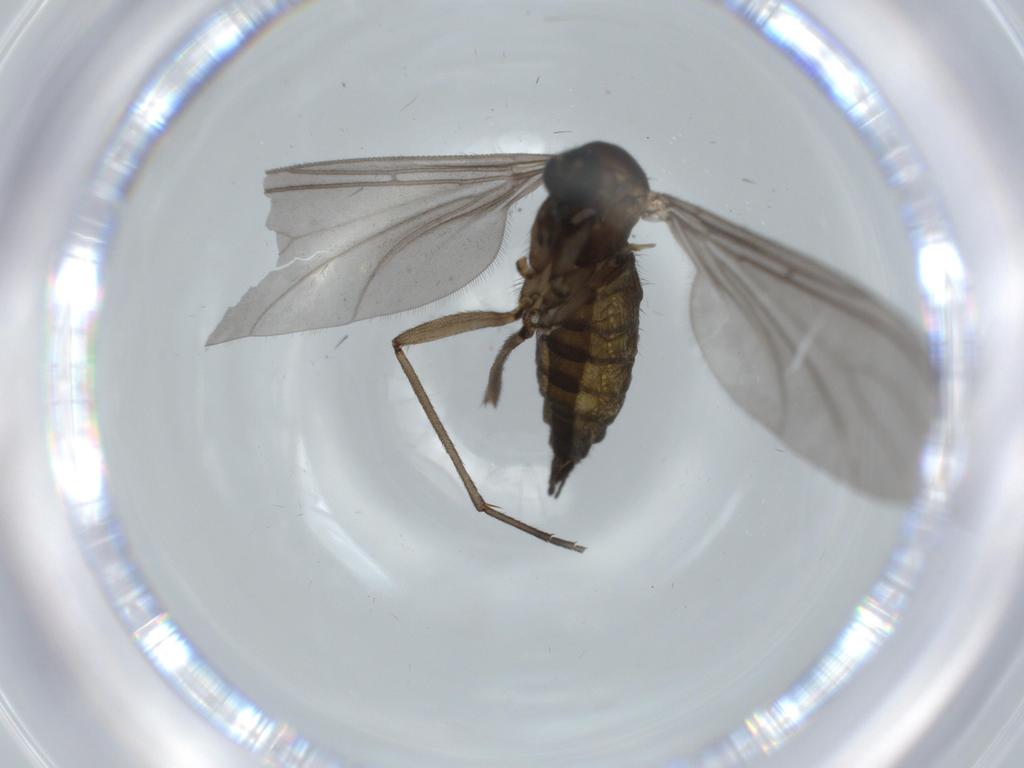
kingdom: Animalia
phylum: Arthropoda
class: Insecta
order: Diptera
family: Sciaridae
